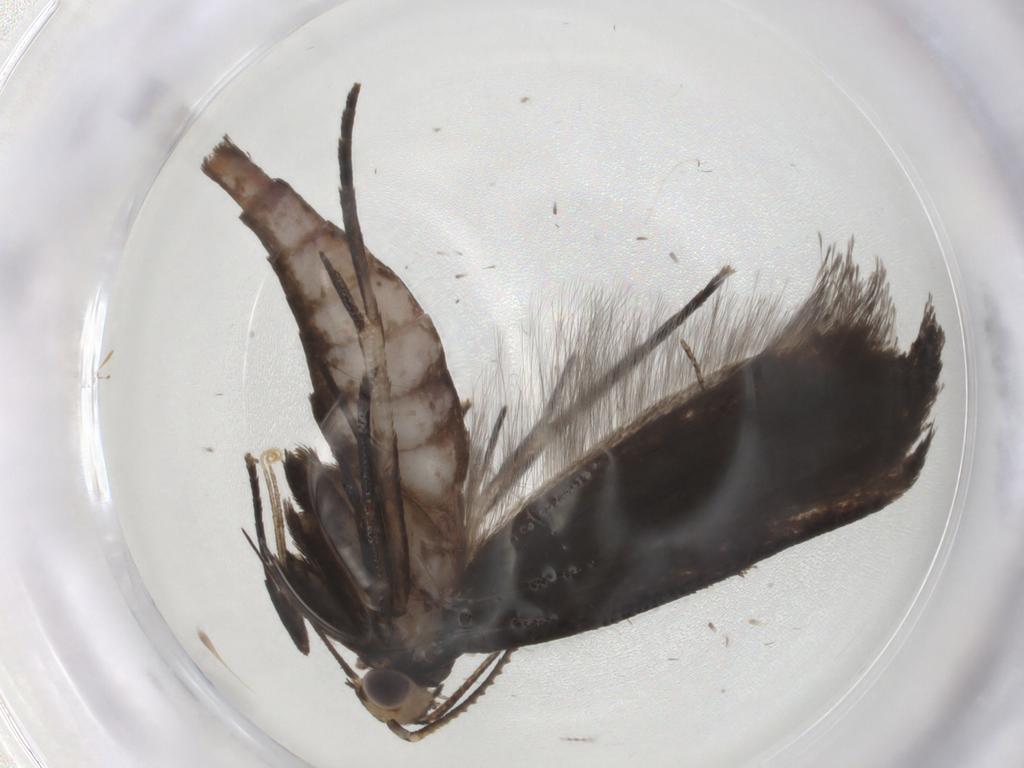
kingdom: Animalia
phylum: Arthropoda
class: Insecta
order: Lepidoptera
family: Gelechiidae
